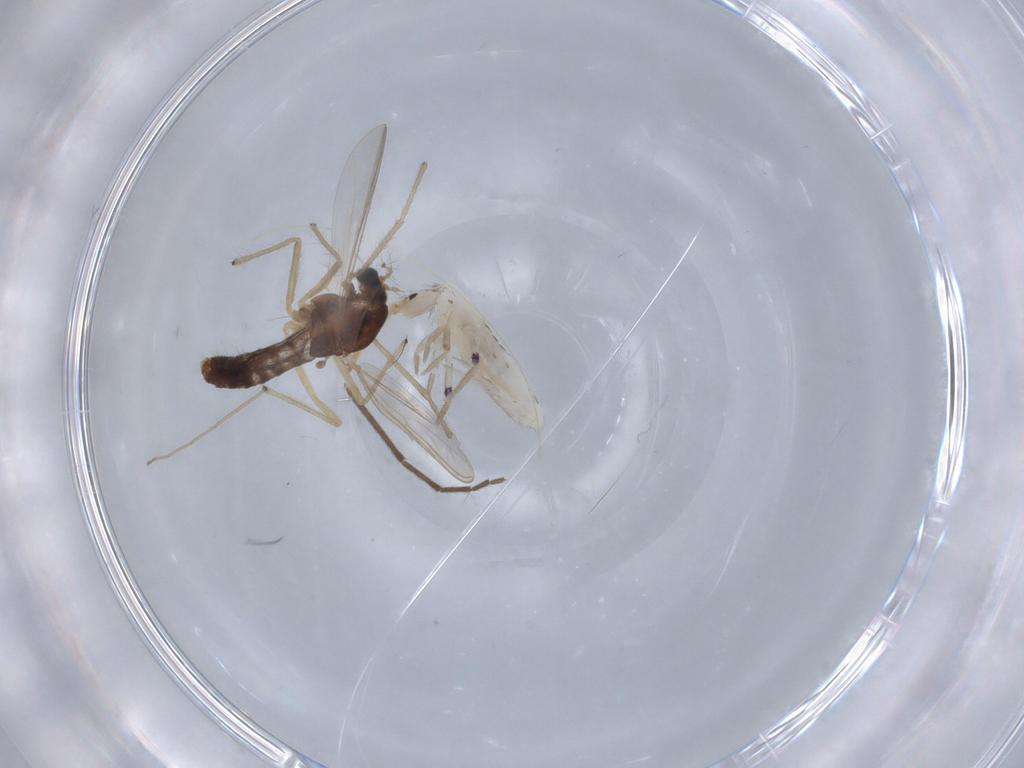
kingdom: Animalia
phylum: Arthropoda
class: Insecta
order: Diptera
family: Chironomidae
